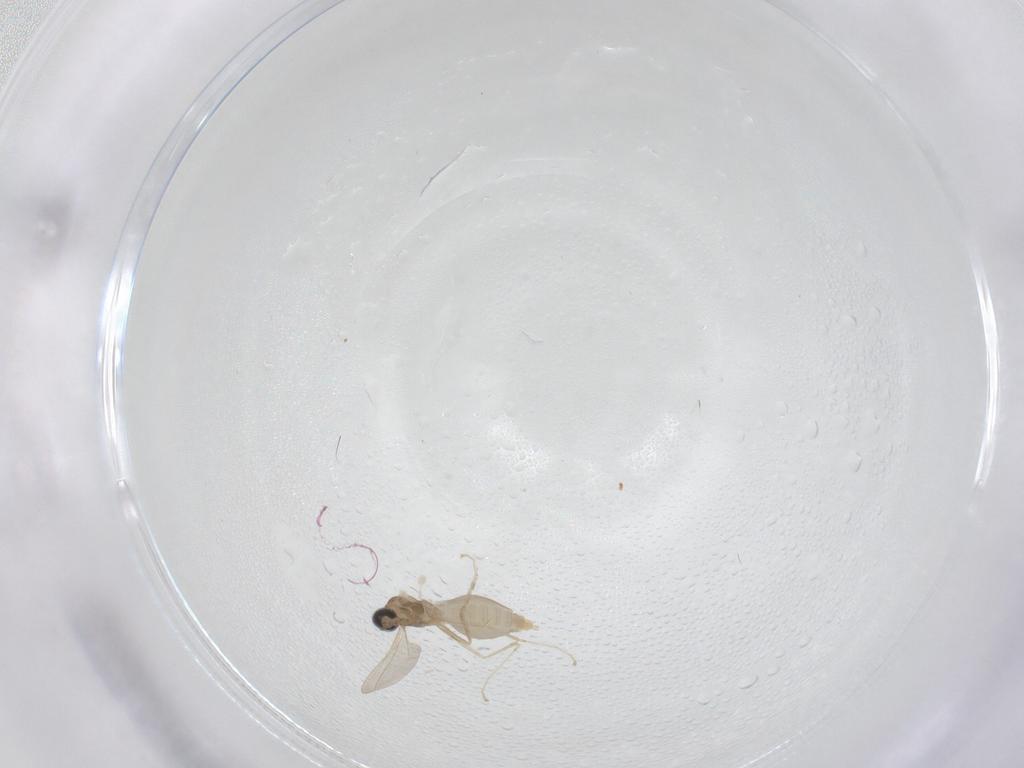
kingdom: Animalia
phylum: Arthropoda
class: Insecta
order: Diptera
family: Cecidomyiidae
